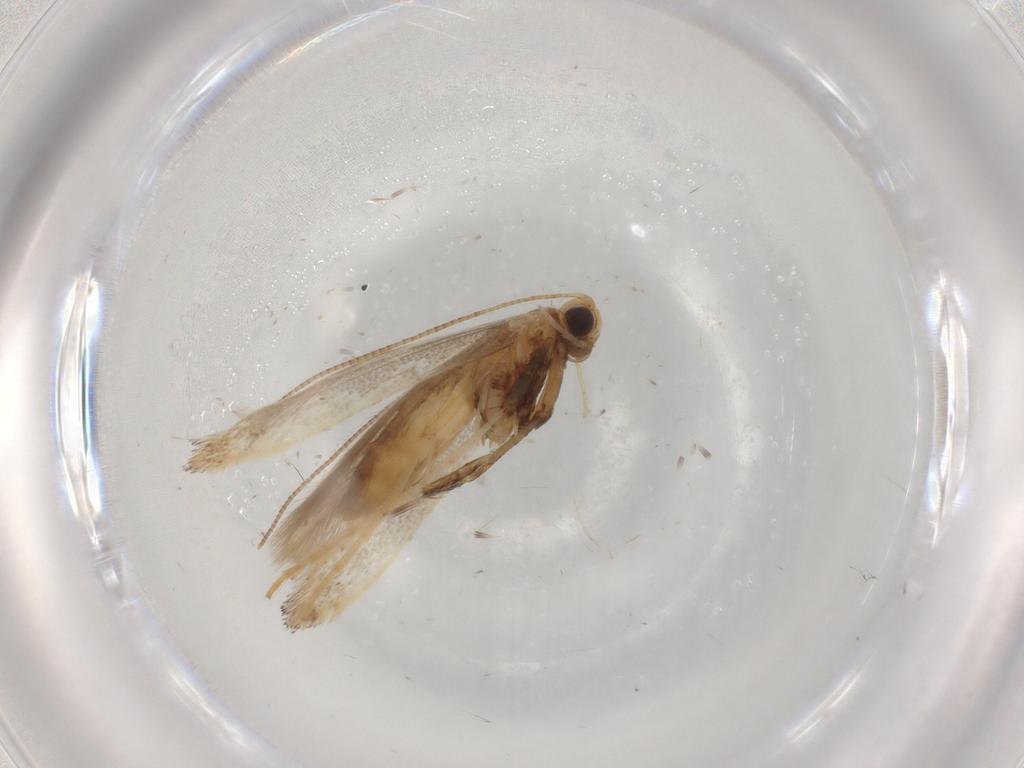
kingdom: Animalia
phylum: Arthropoda
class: Insecta
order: Lepidoptera
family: Gracillariidae
